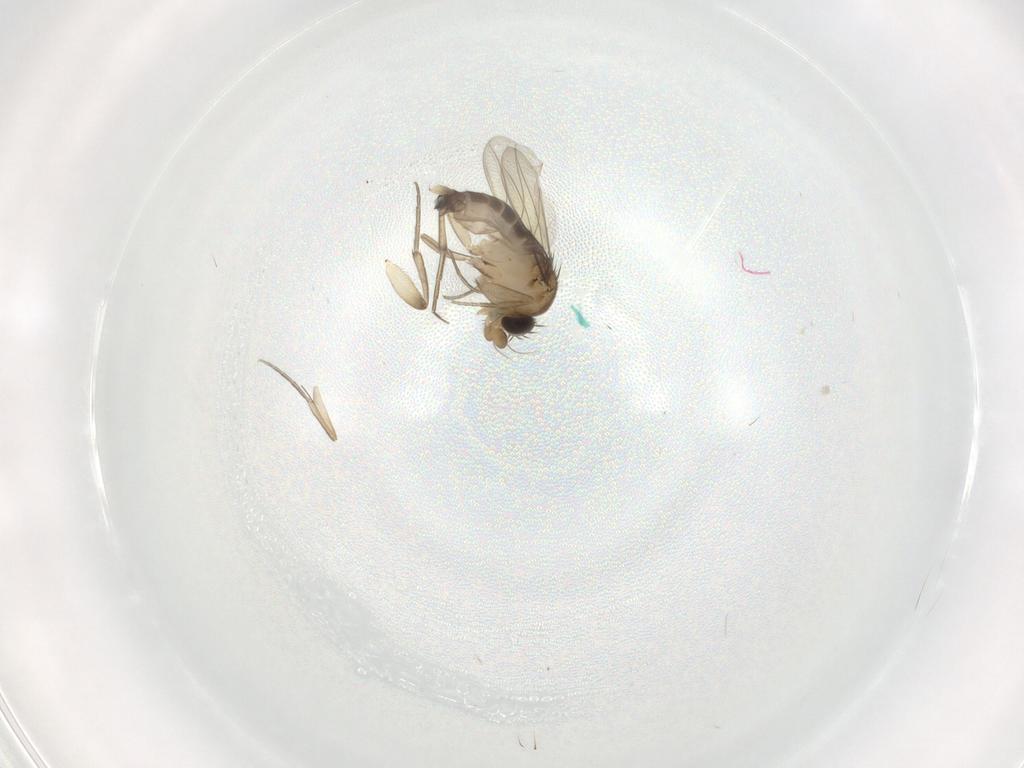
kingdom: Animalia
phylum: Arthropoda
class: Insecta
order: Diptera
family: Phoridae
